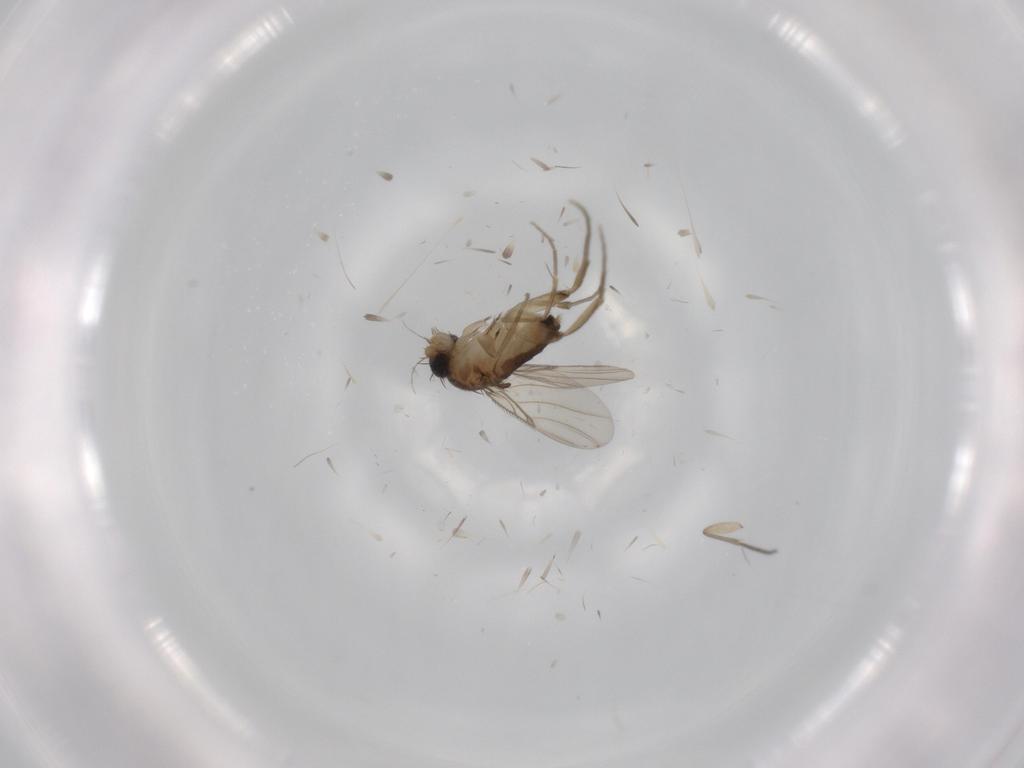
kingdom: Animalia
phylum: Arthropoda
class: Insecta
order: Diptera
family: Phoridae
